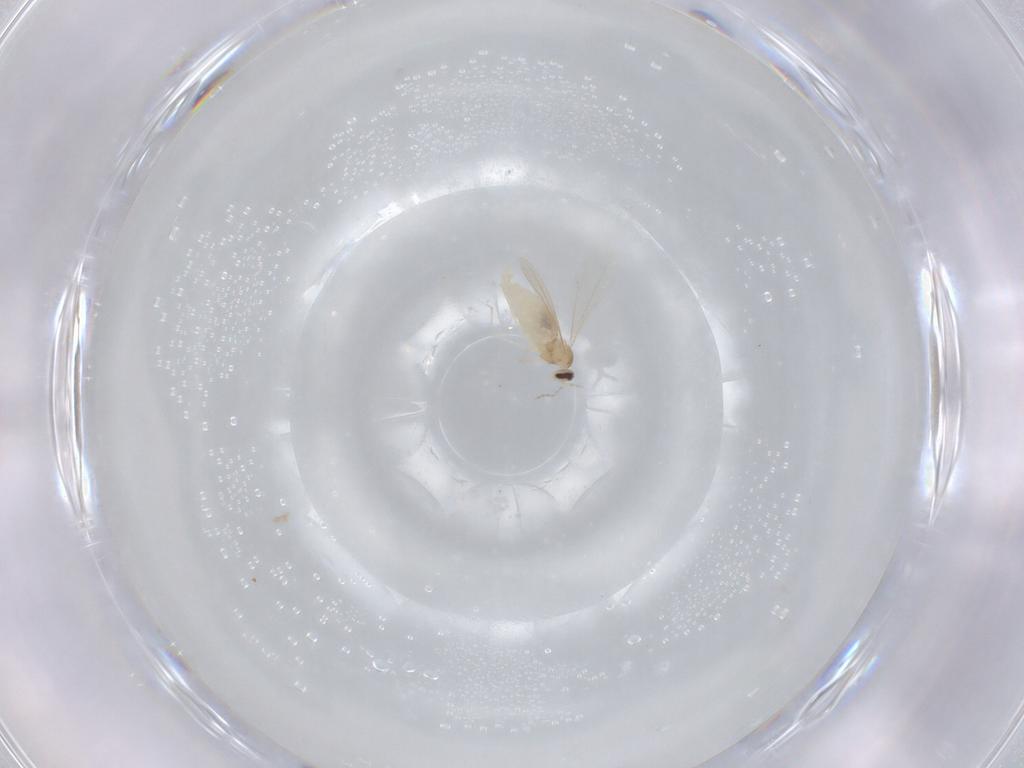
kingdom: Animalia
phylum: Arthropoda
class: Insecta
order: Diptera
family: Cecidomyiidae
